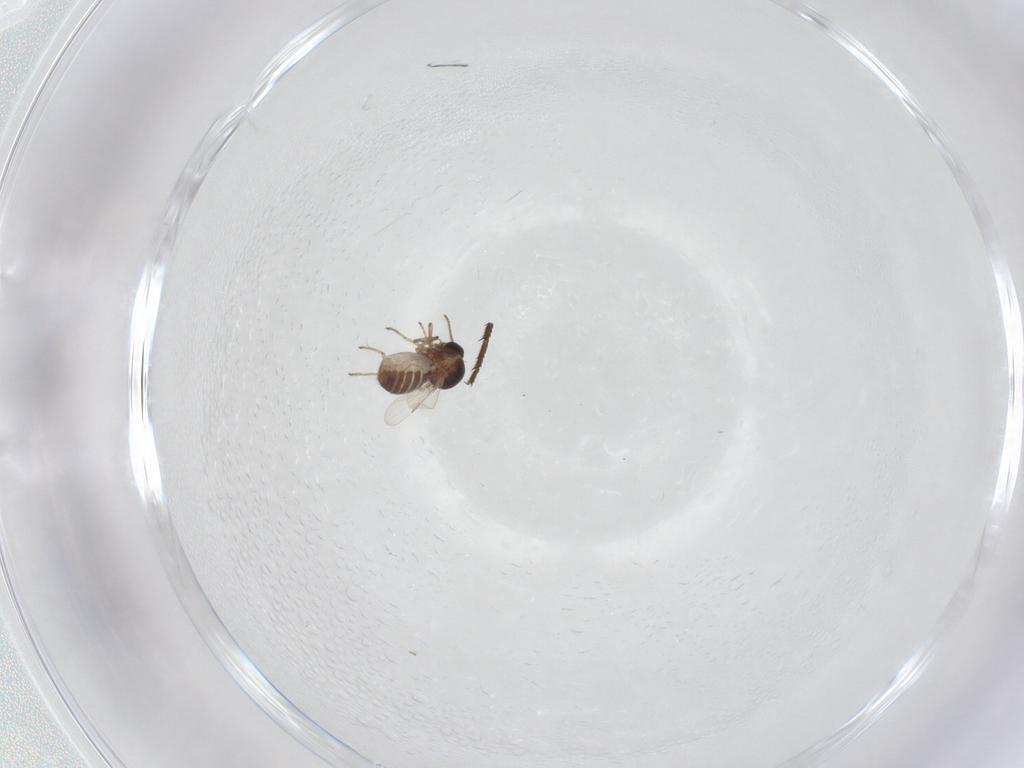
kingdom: Animalia
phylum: Arthropoda
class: Insecta
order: Diptera
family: Ceratopogonidae
